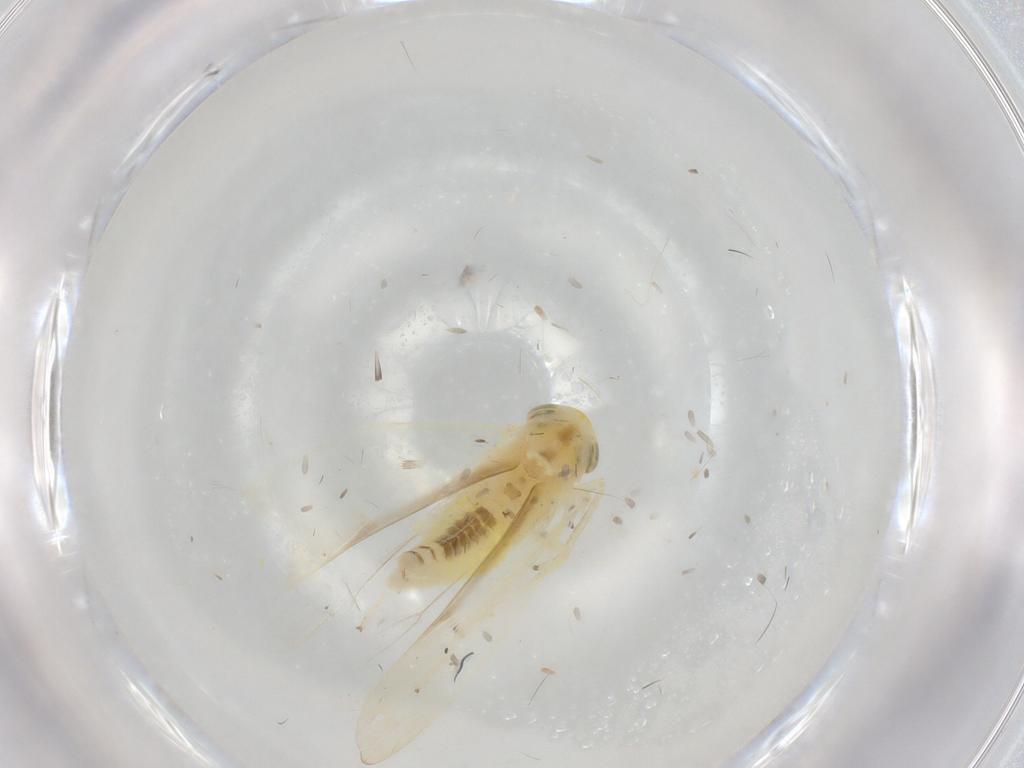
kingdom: Animalia
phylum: Arthropoda
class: Insecta
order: Hemiptera
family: Cicadellidae
